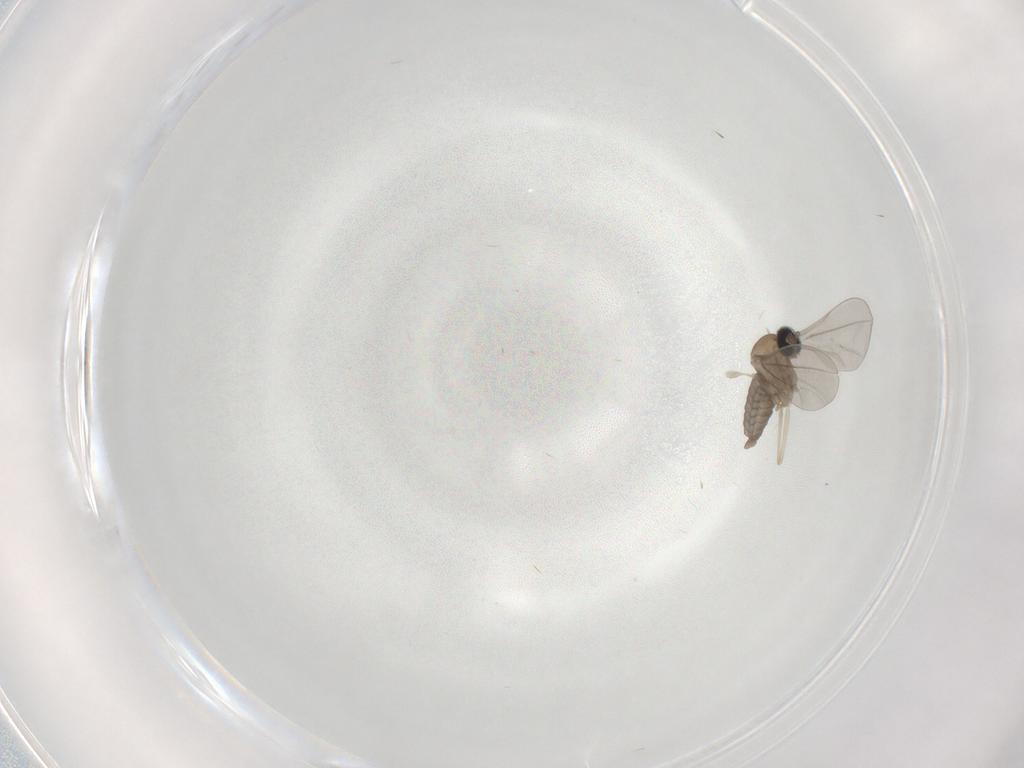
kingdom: Animalia
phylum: Arthropoda
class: Insecta
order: Diptera
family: Cecidomyiidae
